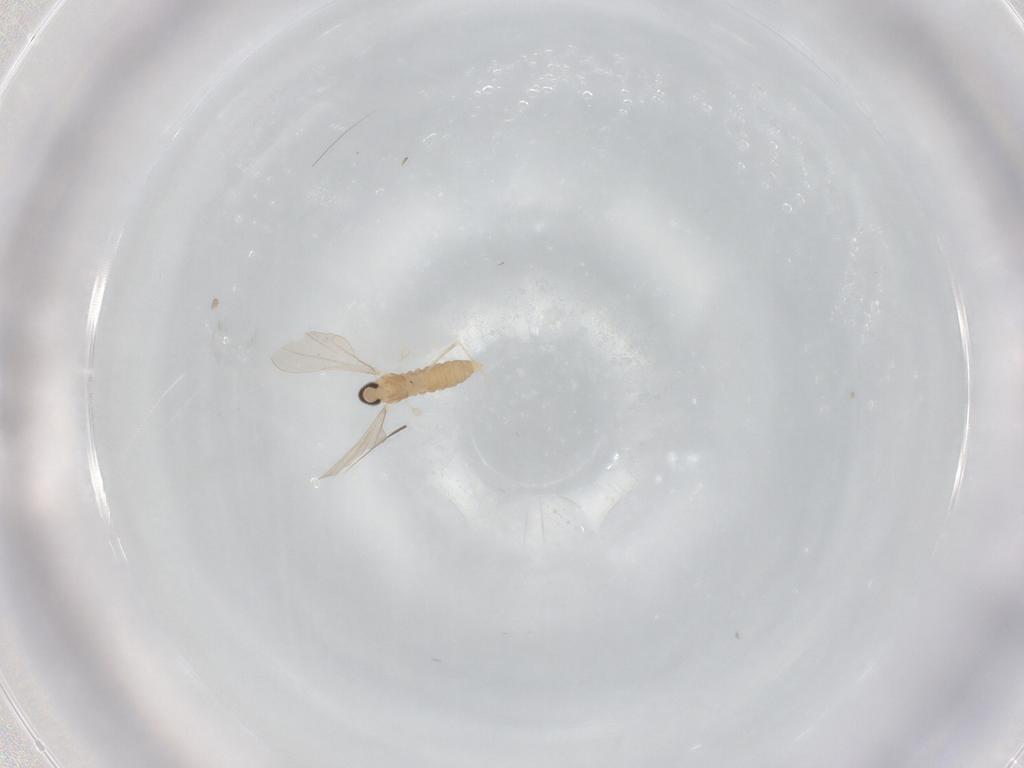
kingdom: Animalia
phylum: Arthropoda
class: Insecta
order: Diptera
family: Cecidomyiidae
